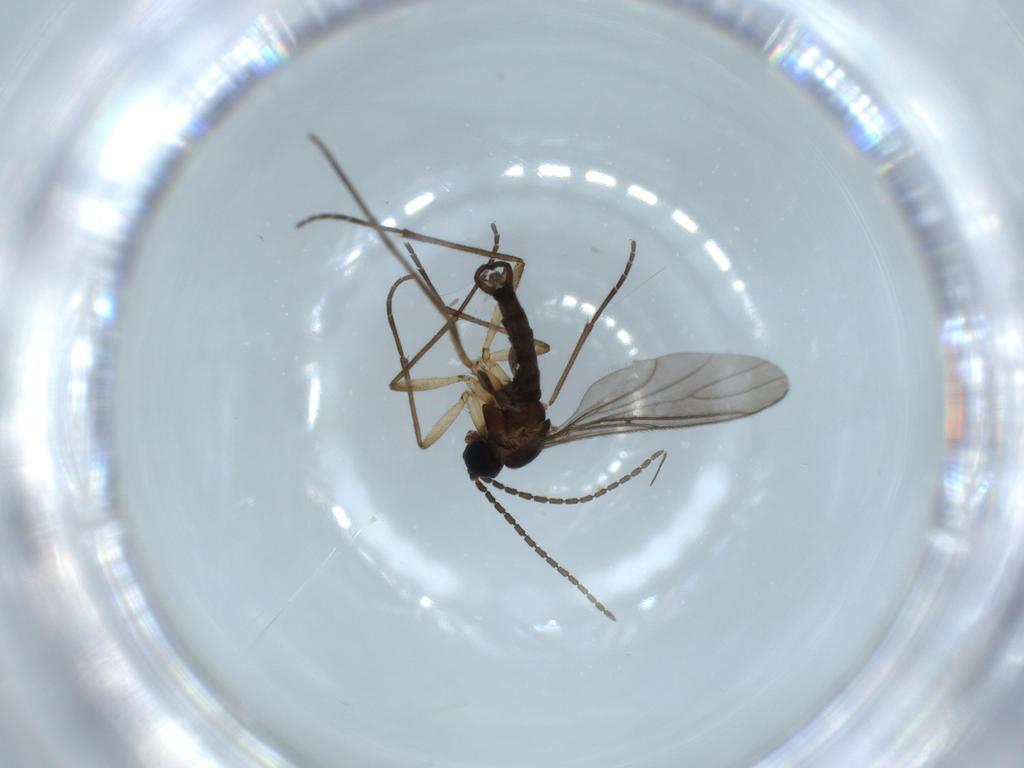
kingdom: Animalia
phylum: Arthropoda
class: Insecta
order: Diptera
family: Sciaridae
